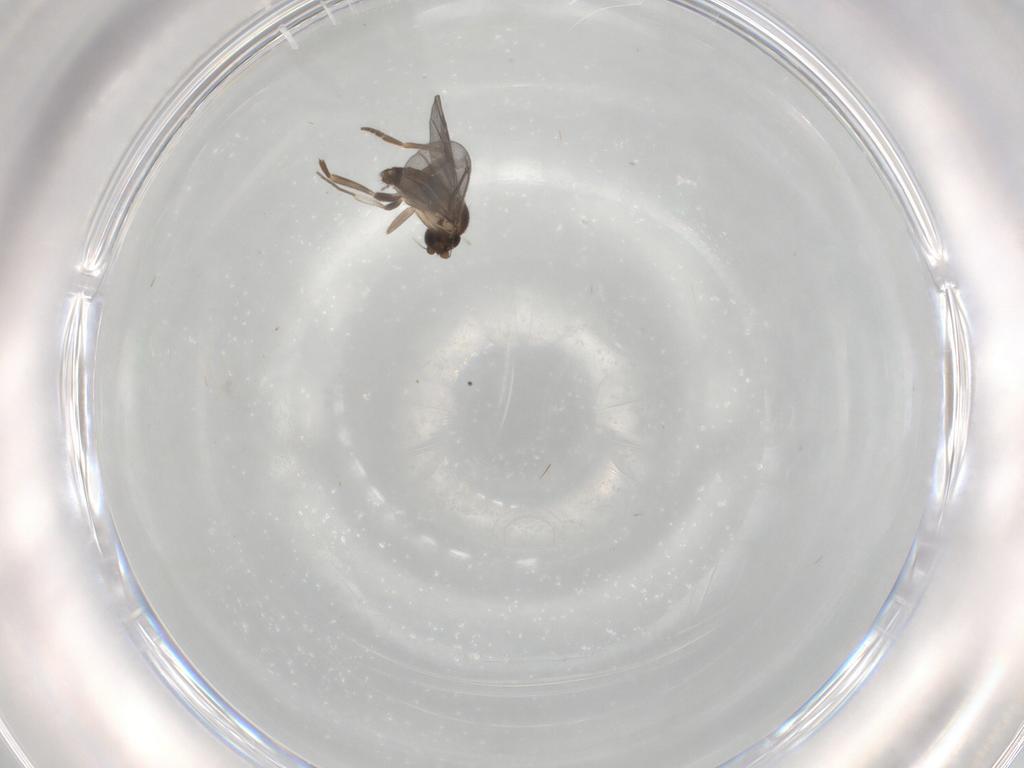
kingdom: Animalia
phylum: Arthropoda
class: Insecta
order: Diptera
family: Phoridae
